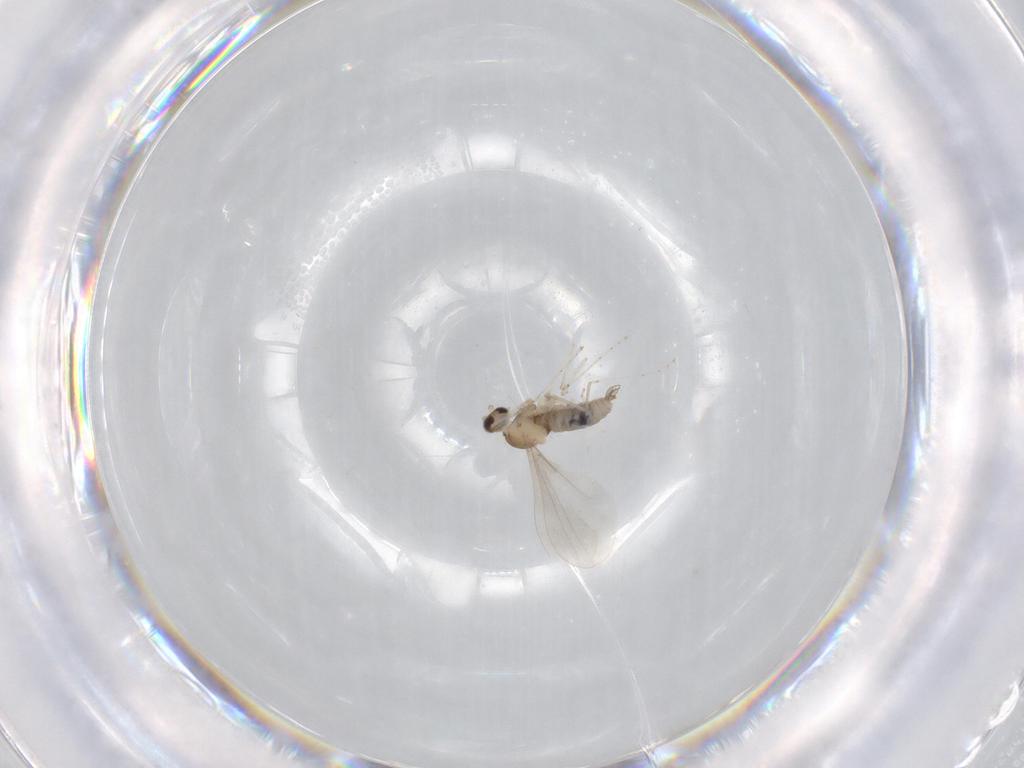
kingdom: Animalia
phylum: Arthropoda
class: Insecta
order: Diptera
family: Cecidomyiidae
